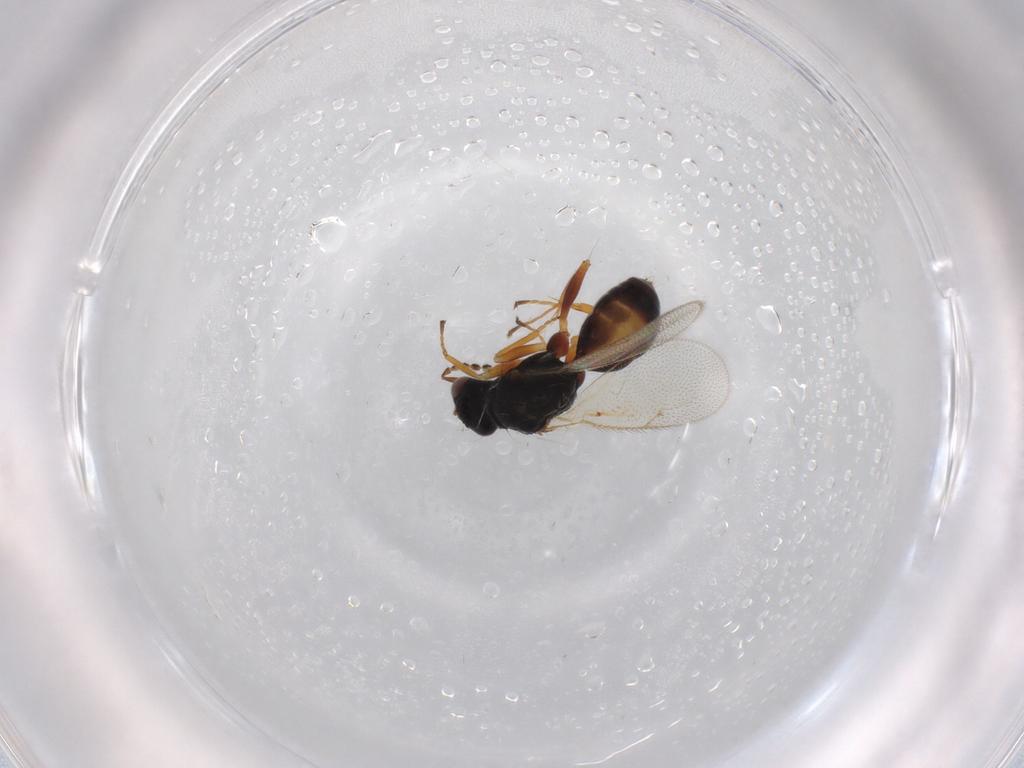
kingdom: Animalia
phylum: Arthropoda
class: Insecta
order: Hymenoptera
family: Eulophidae
